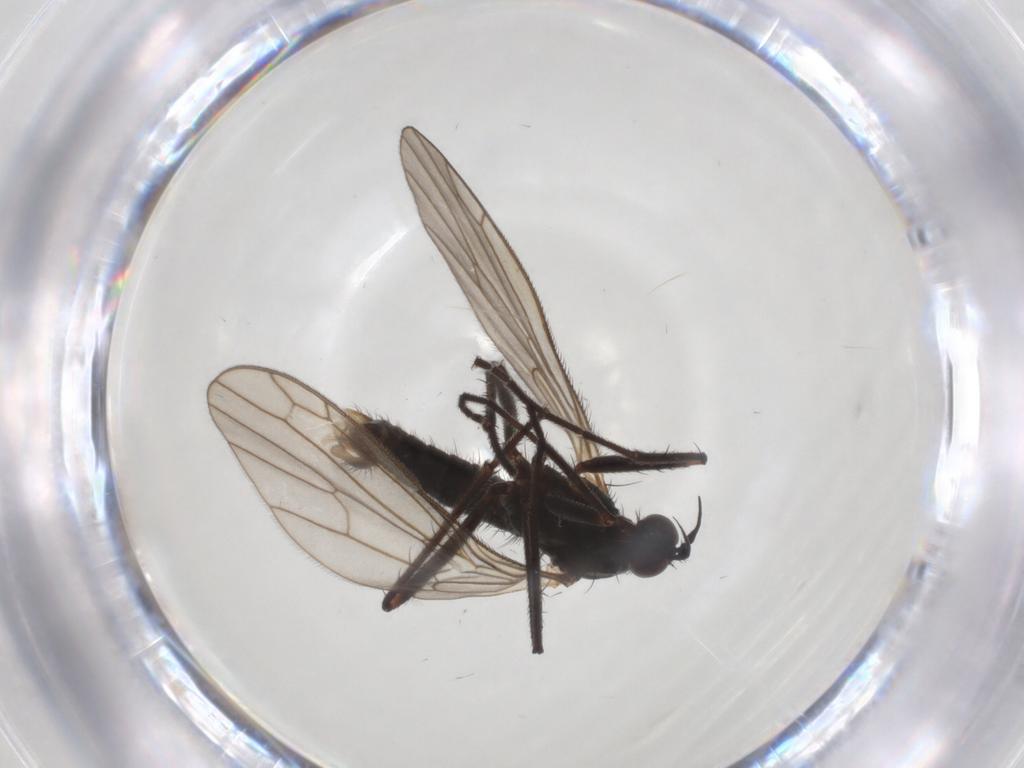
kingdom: Animalia
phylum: Arthropoda
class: Insecta
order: Diptera
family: Empididae
